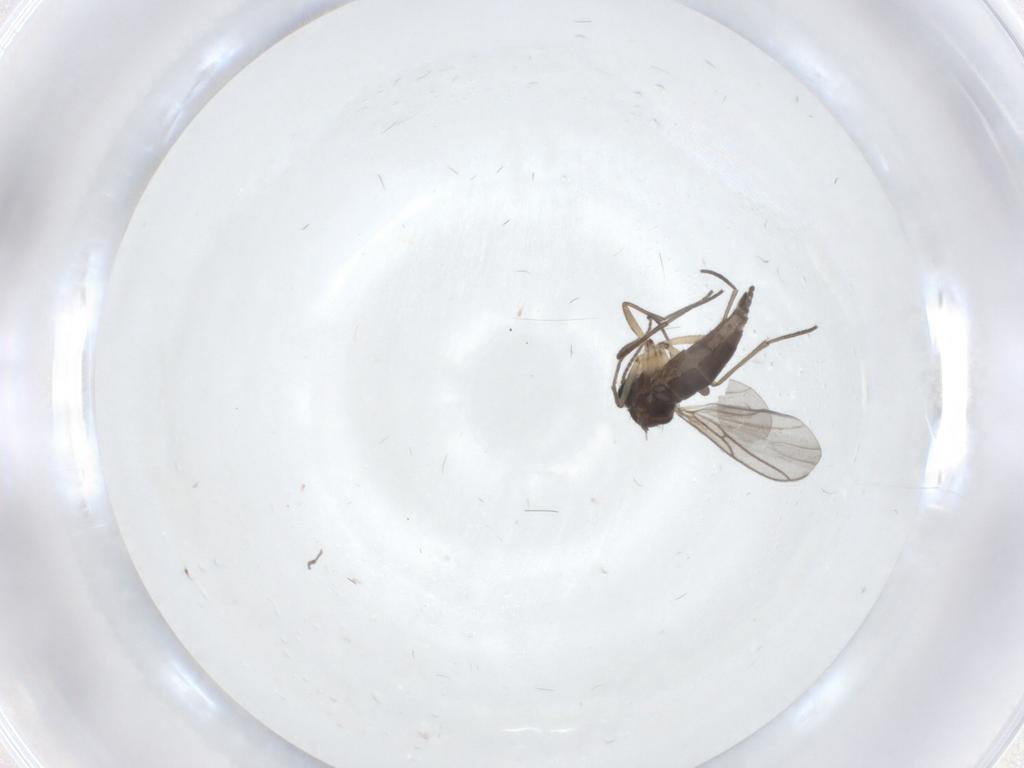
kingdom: Animalia
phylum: Arthropoda
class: Insecta
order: Diptera
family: Sciaridae
